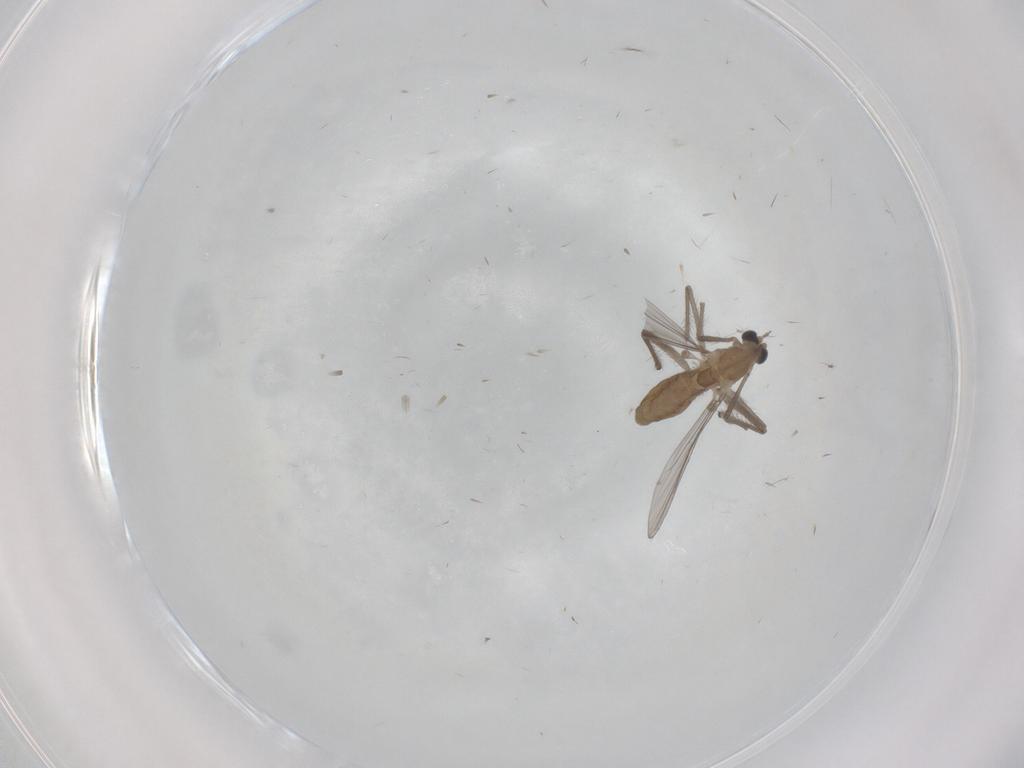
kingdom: Animalia
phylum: Arthropoda
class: Insecta
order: Diptera
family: Chironomidae
